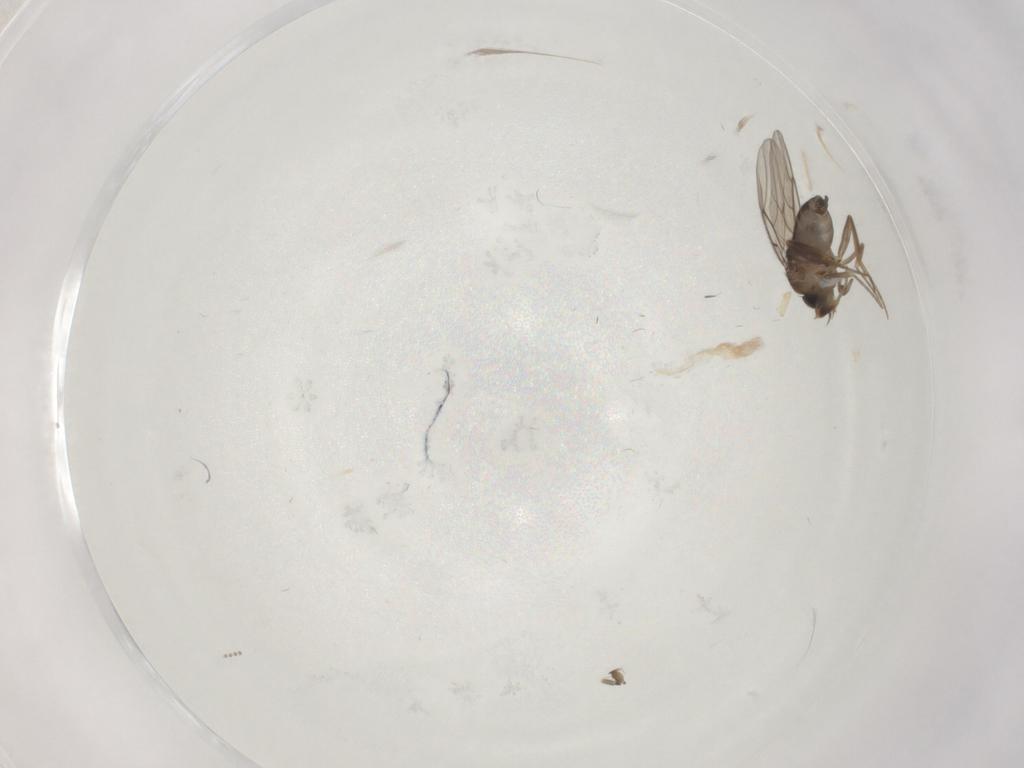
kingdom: Animalia
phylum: Arthropoda
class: Insecta
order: Diptera
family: Phoridae
